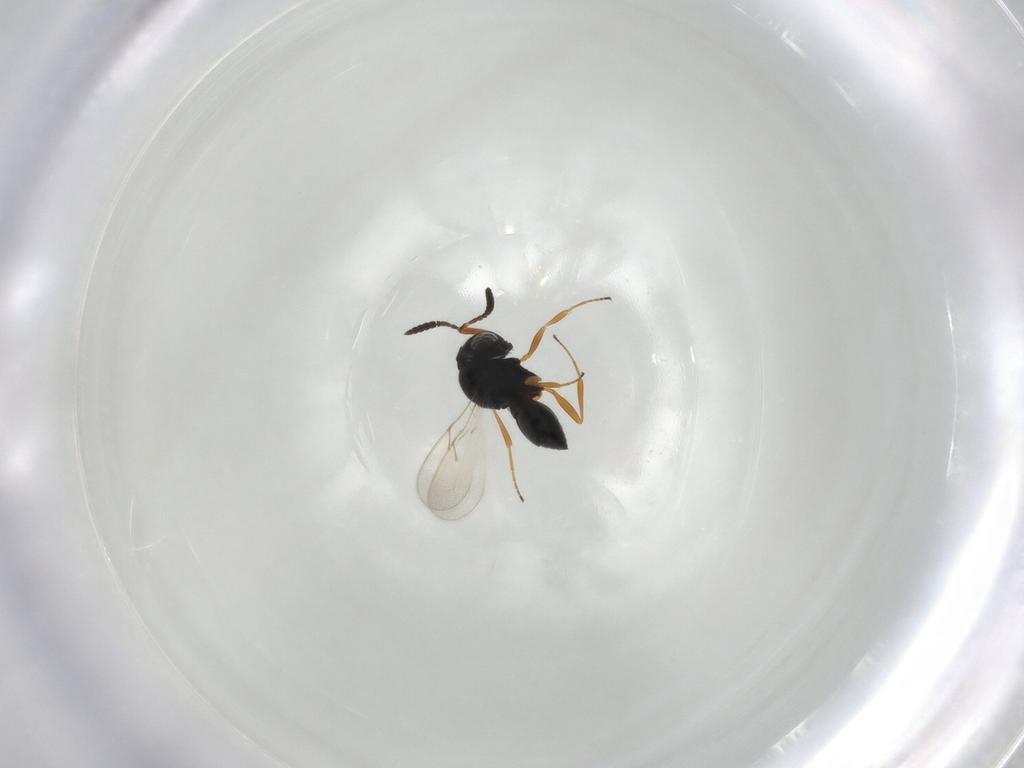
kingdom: Animalia
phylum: Arthropoda
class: Insecta
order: Hymenoptera
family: Scelionidae
